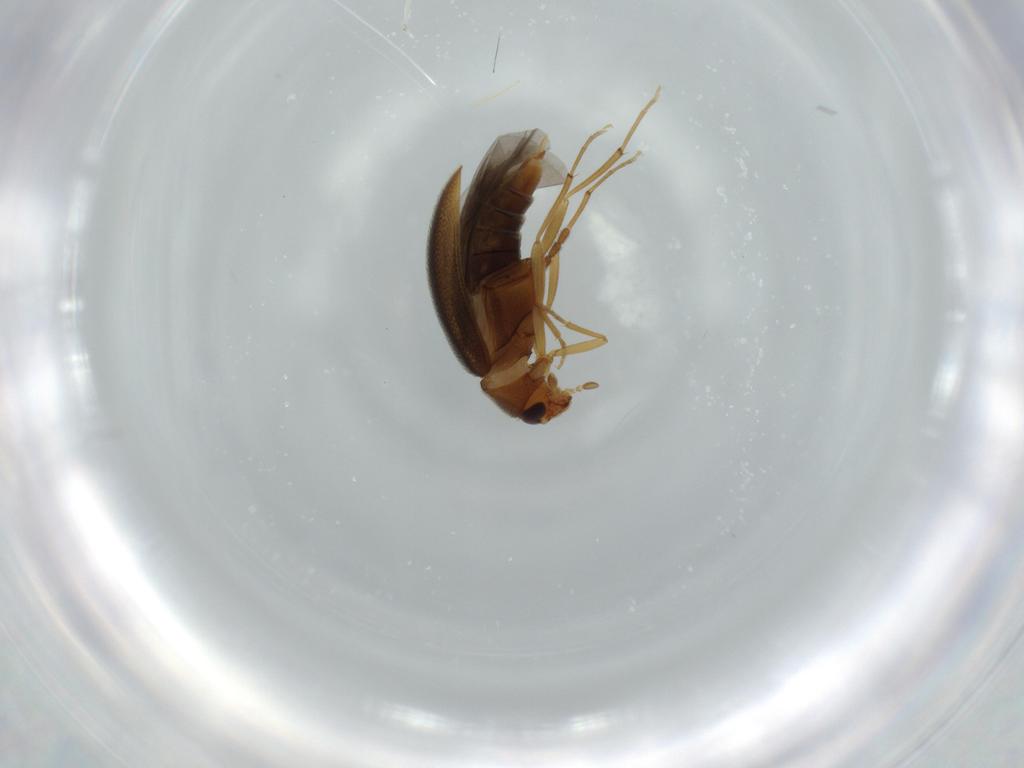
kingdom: Animalia
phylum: Arthropoda
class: Insecta
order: Coleoptera
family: Melandryidae
